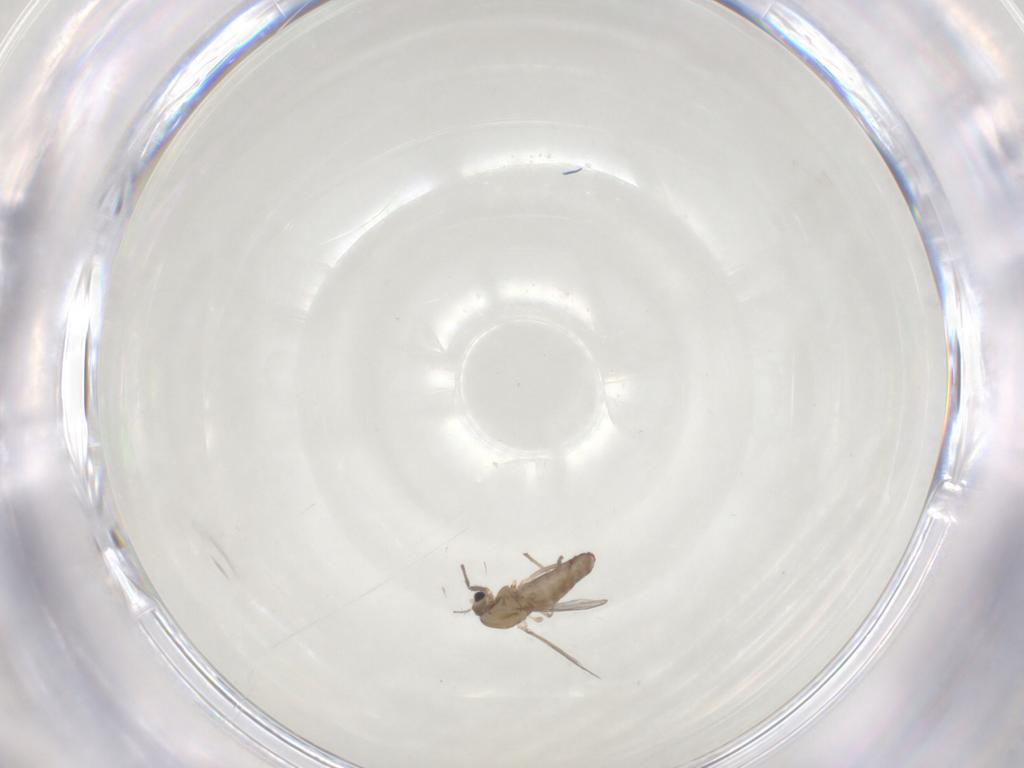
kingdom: Animalia
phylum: Arthropoda
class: Insecta
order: Diptera
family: Chironomidae
